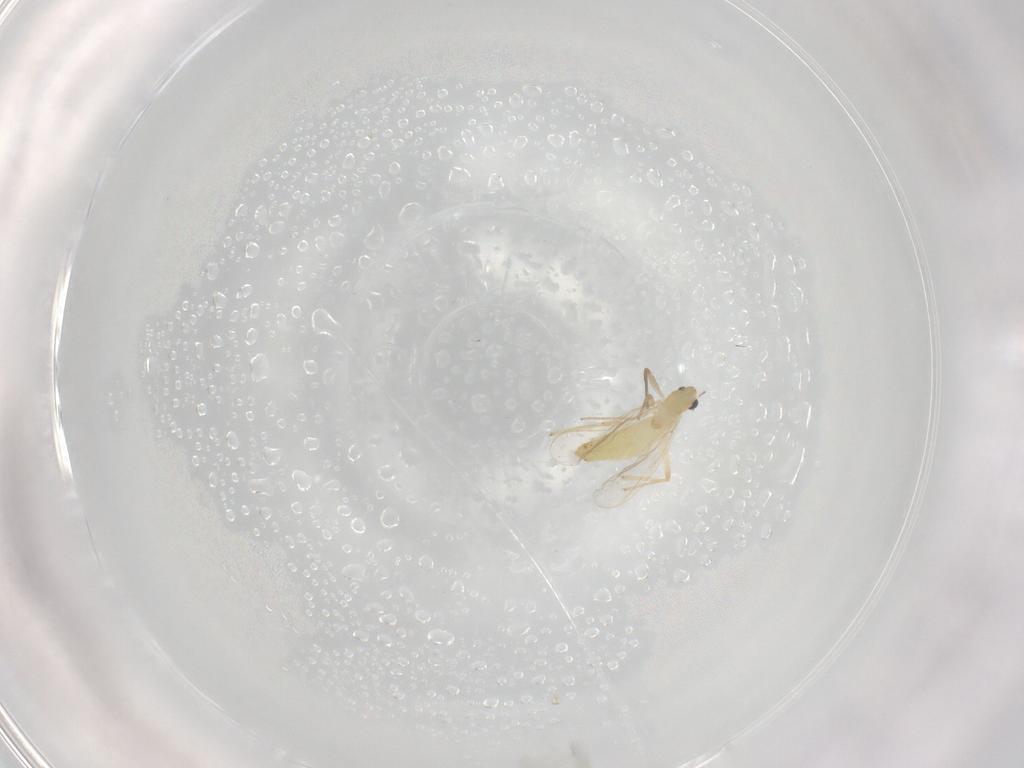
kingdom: Animalia
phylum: Arthropoda
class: Insecta
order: Diptera
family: Chironomidae
